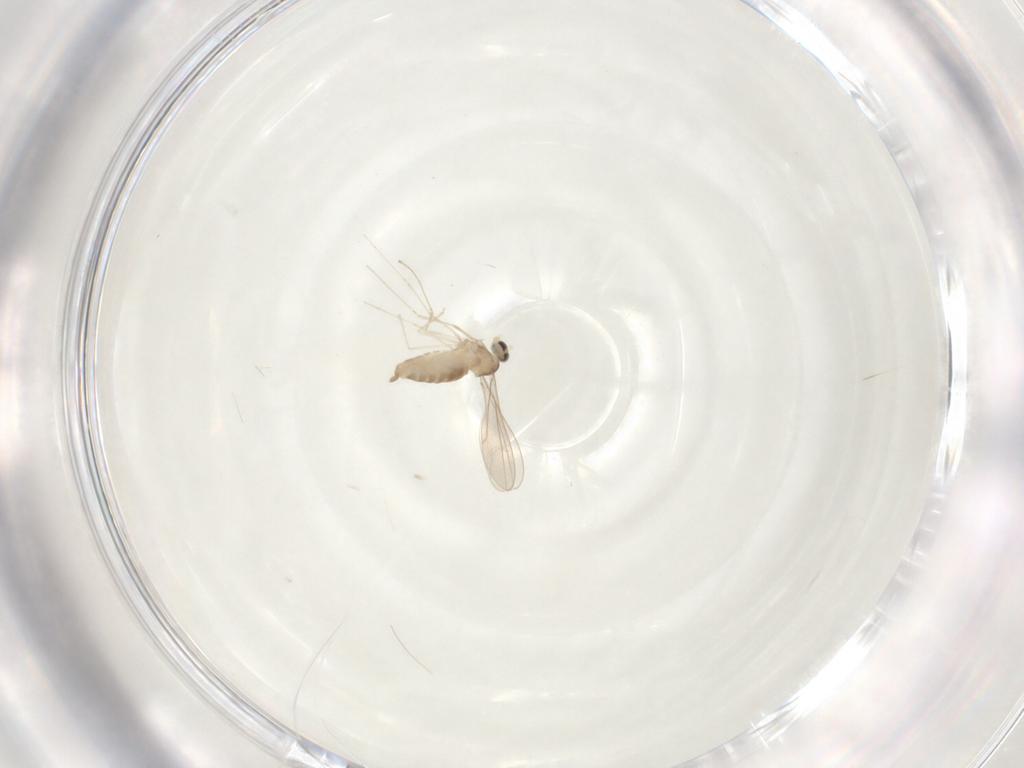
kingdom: Animalia
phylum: Arthropoda
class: Insecta
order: Diptera
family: Cecidomyiidae
